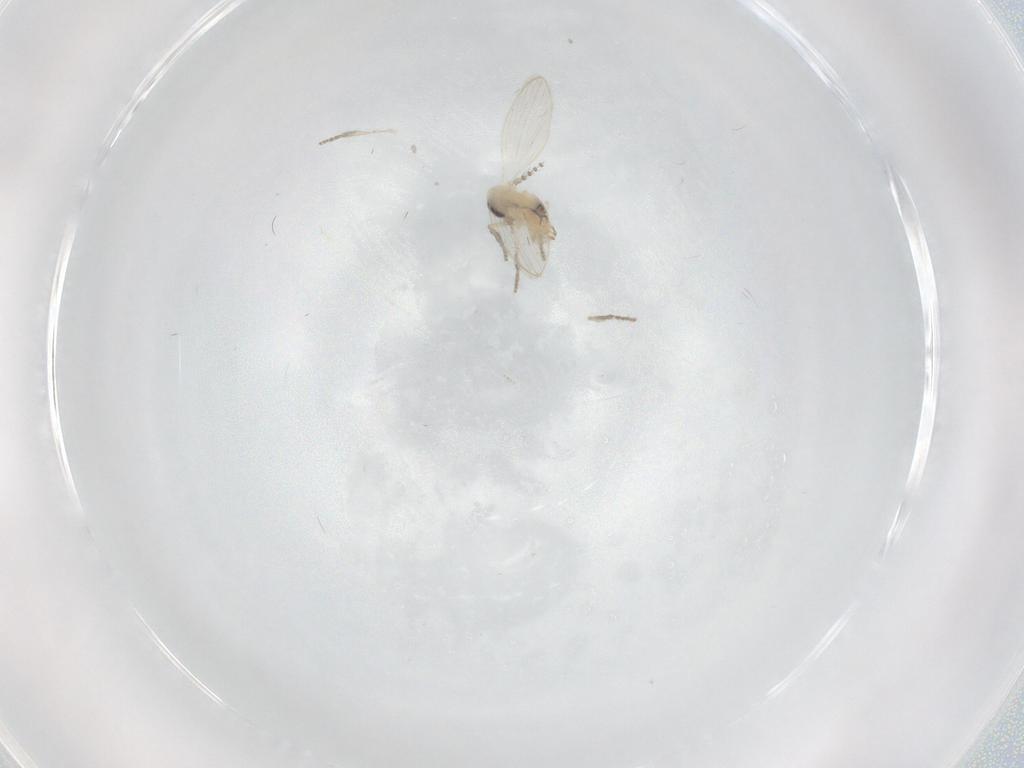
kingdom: Animalia
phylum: Arthropoda
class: Insecta
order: Diptera
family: Psychodidae
